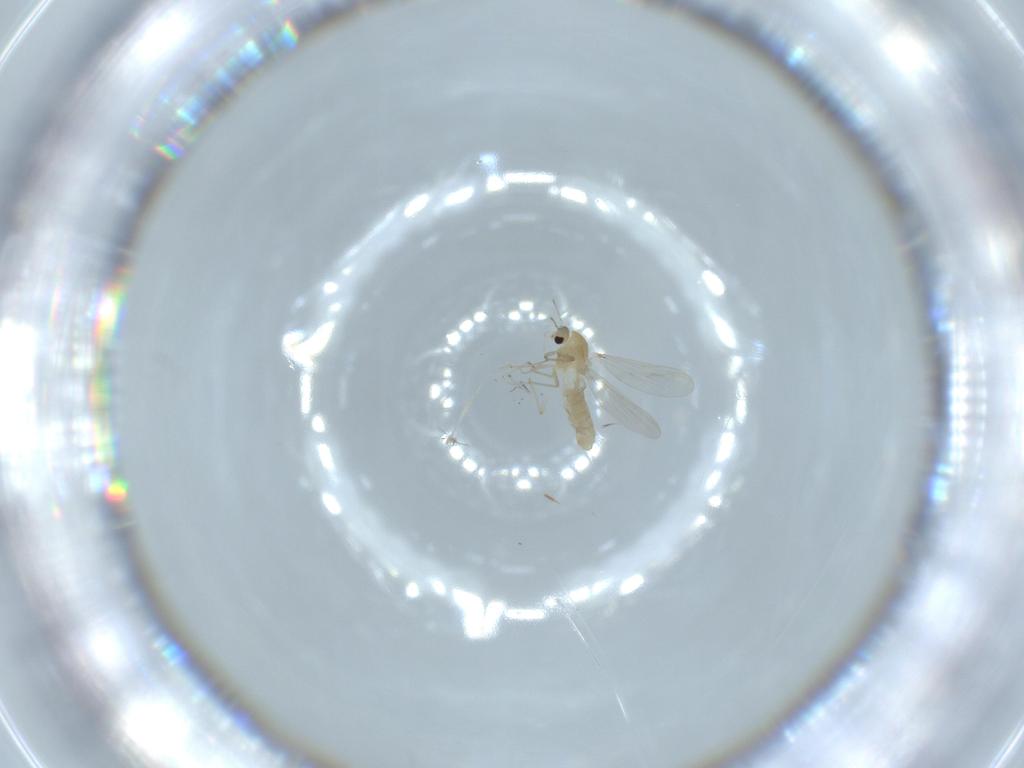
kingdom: Animalia
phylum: Arthropoda
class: Insecta
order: Diptera
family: Chironomidae
